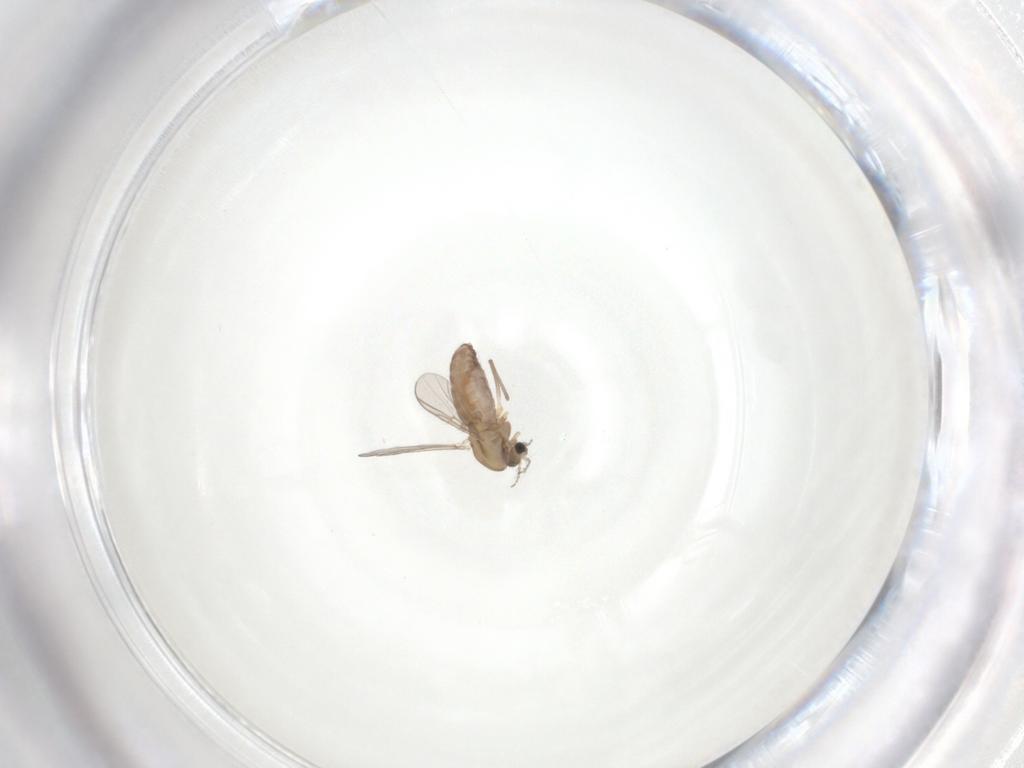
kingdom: Animalia
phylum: Arthropoda
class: Insecta
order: Diptera
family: Chironomidae
